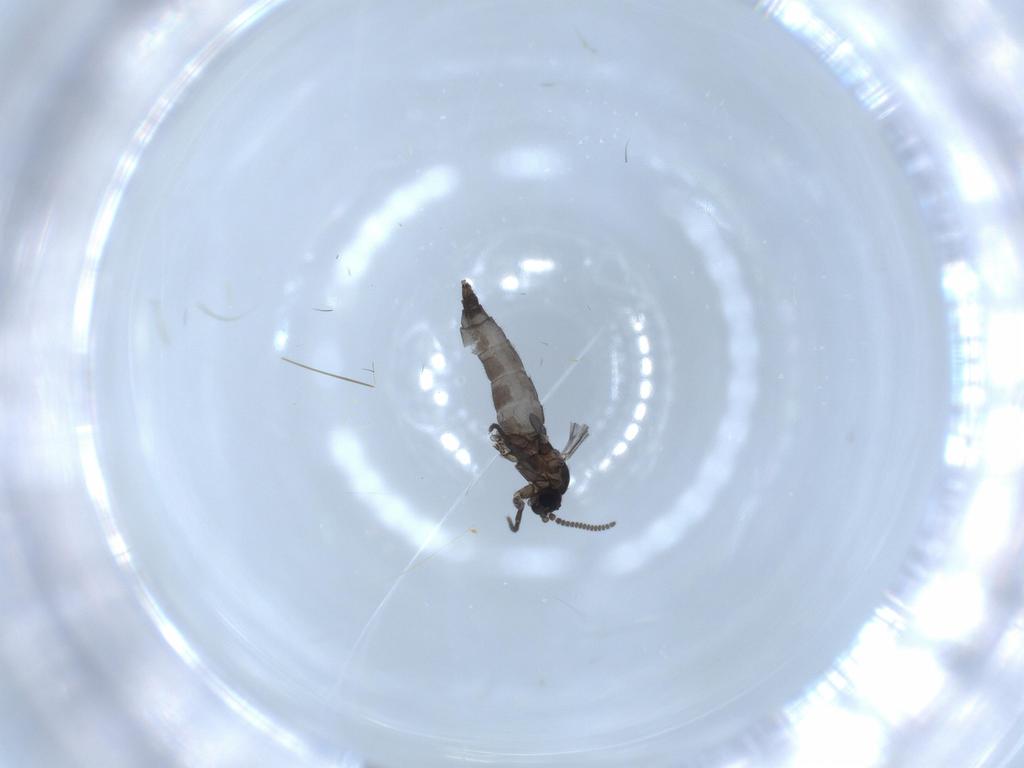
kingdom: Animalia
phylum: Arthropoda
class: Insecta
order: Diptera
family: Sciaridae
